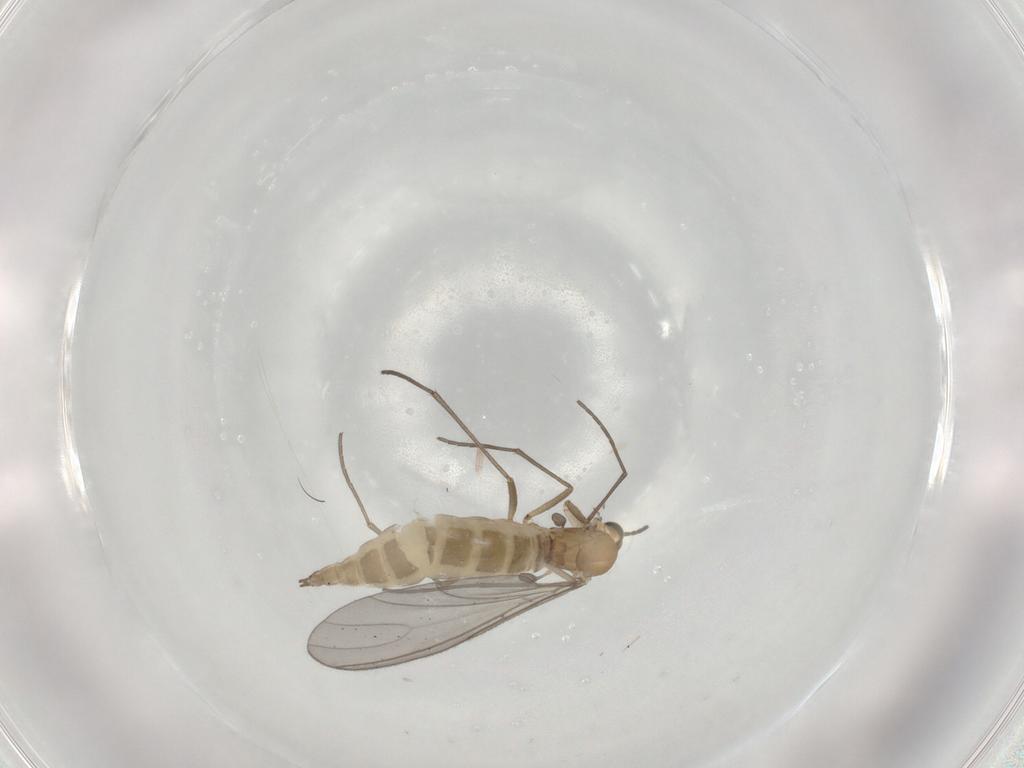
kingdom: Animalia
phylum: Arthropoda
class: Insecta
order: Diptera
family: Sciaridae
